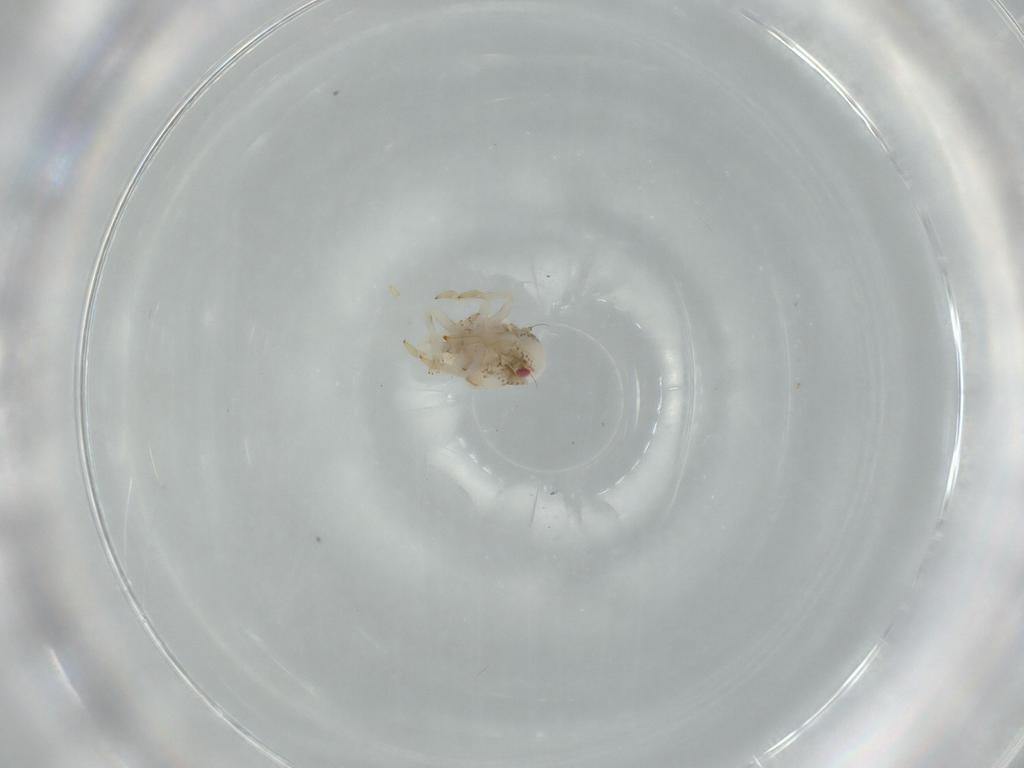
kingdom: Animalia
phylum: Arthropoda
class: Insecta
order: Hemiptera
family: Acanaloniidae
